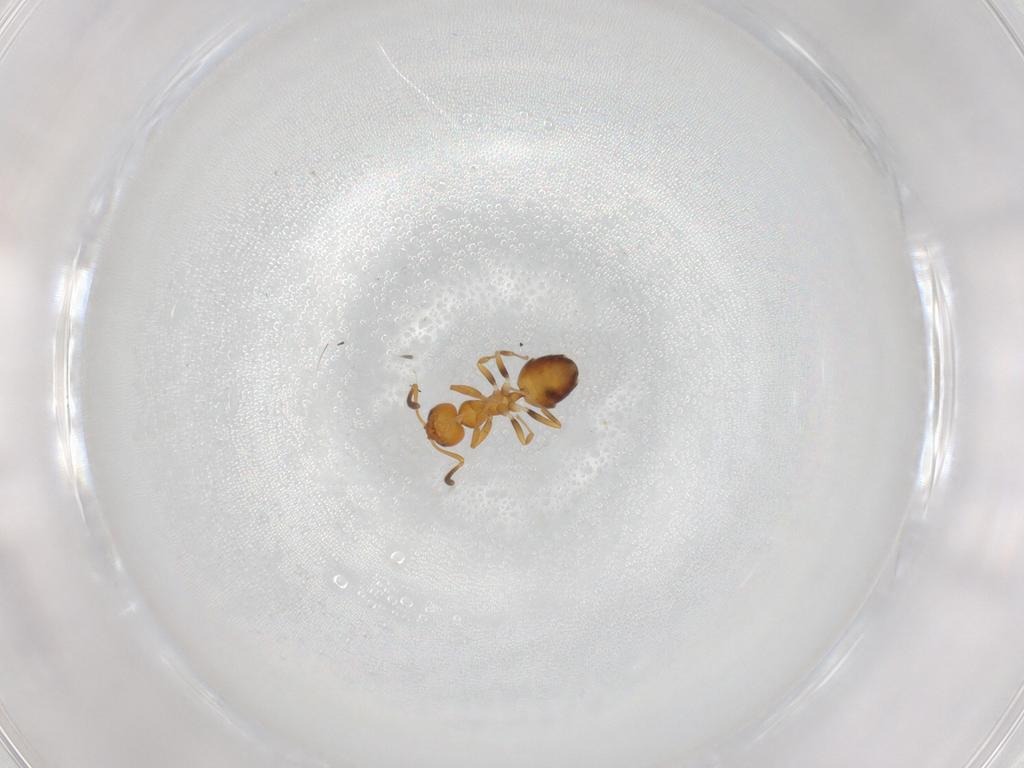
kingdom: Animalia
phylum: Arthropoda
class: Insecta
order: Hymenoptera
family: Formicidae
